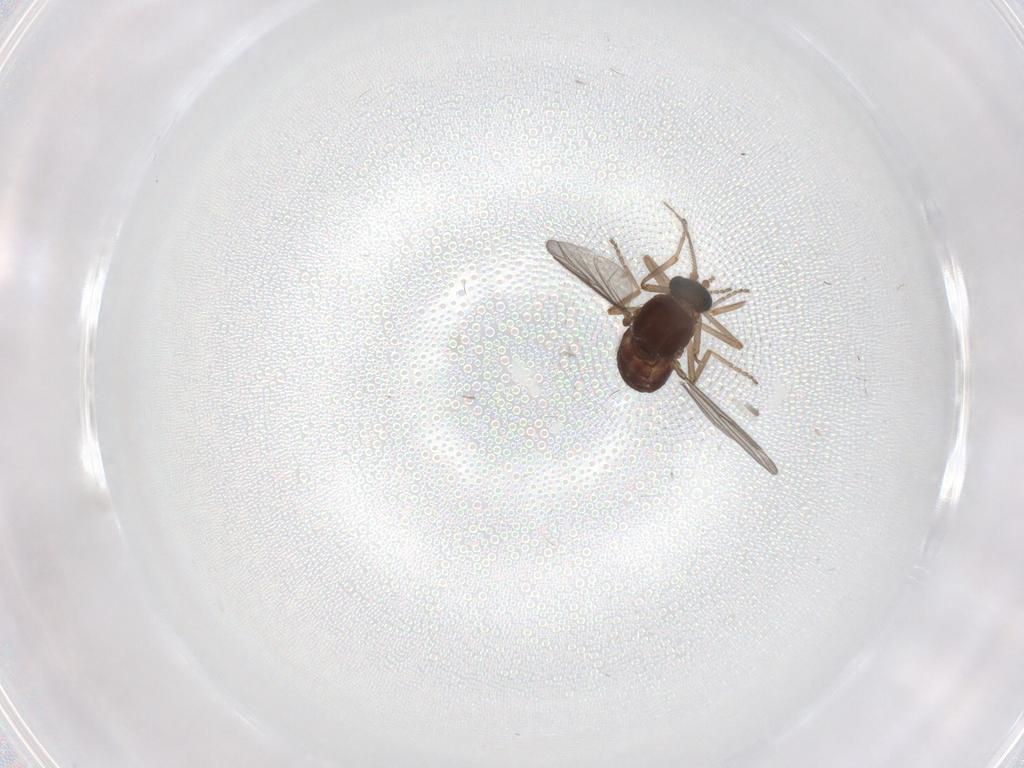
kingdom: Animalia
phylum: Arthropoda
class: Insecta
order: Diptera
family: Ceratopogonidae
